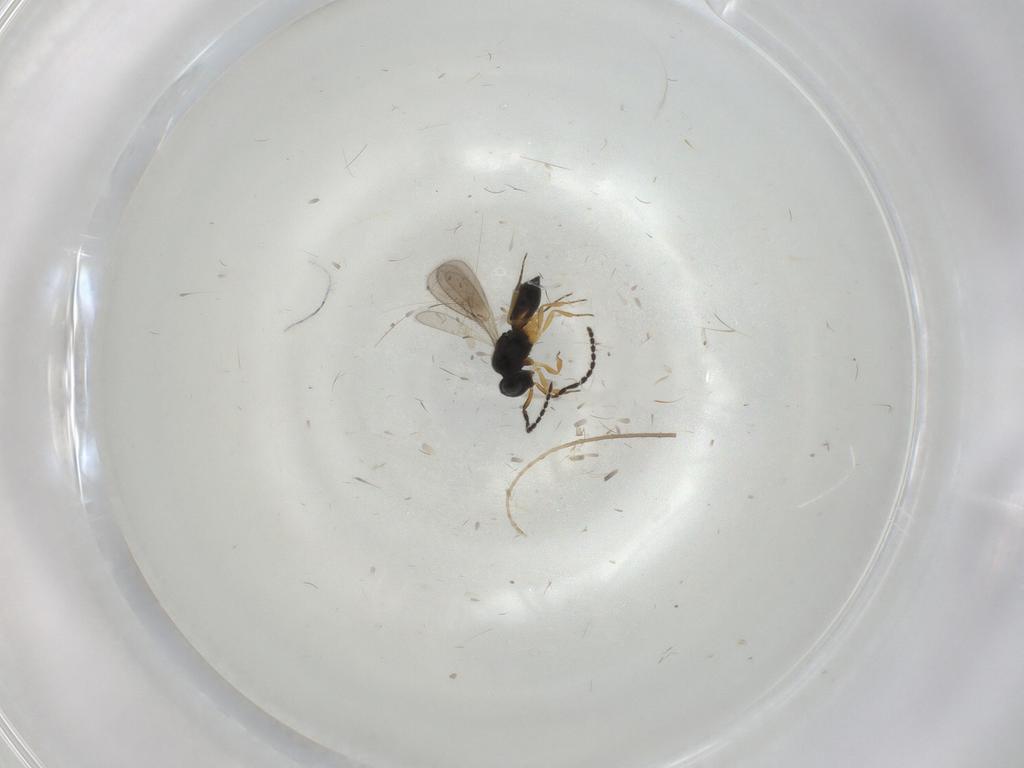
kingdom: Animalia
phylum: Arthropoda
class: Insecta
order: Hymenoptera
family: Scelionidae
